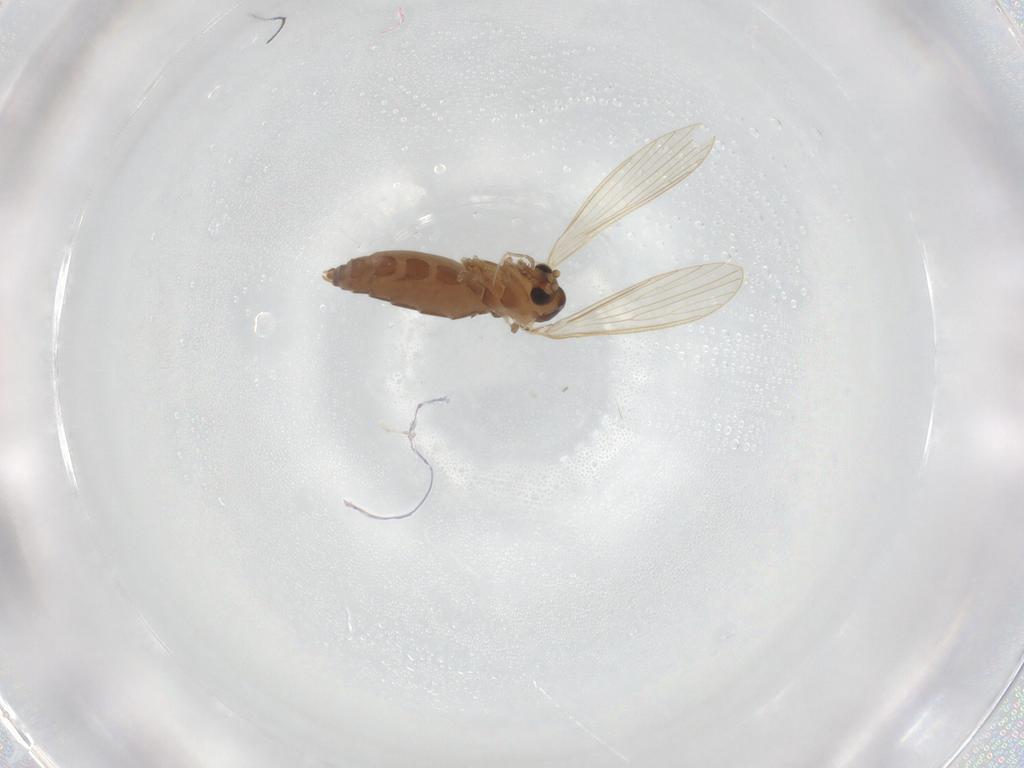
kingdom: Animalia
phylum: Arthropoda
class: Insecta
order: Diptera
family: Psychodidae
